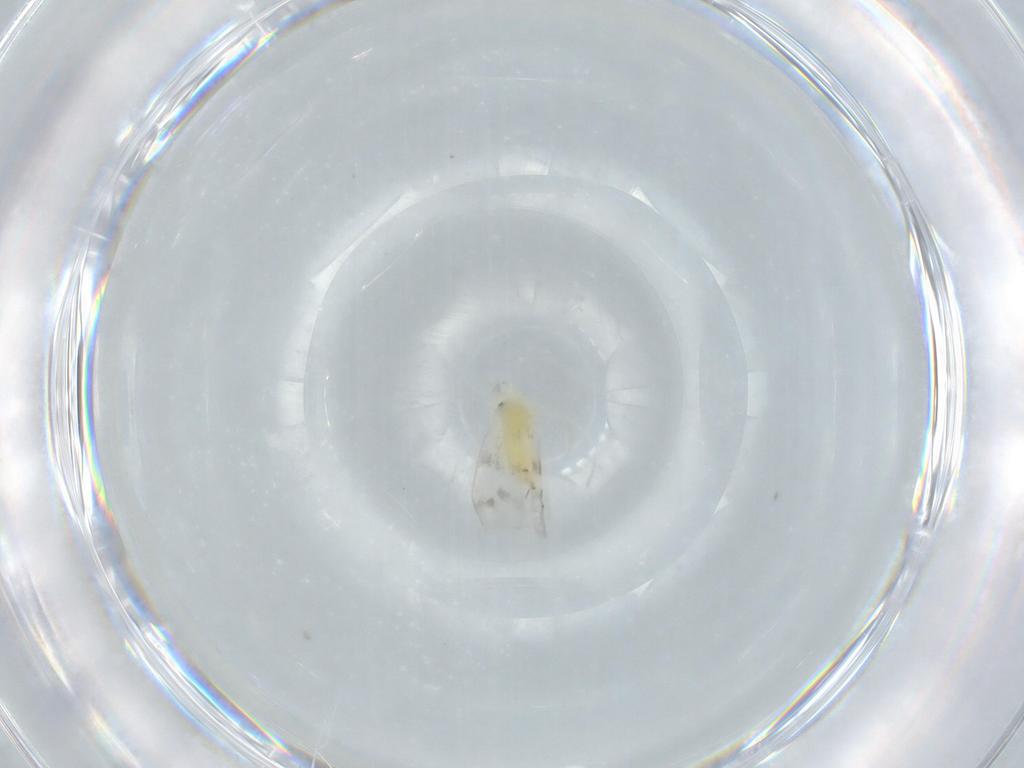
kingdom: Animalia
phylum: Arthropoda
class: Insecta
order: Hemiptera
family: Aleyrodidae
